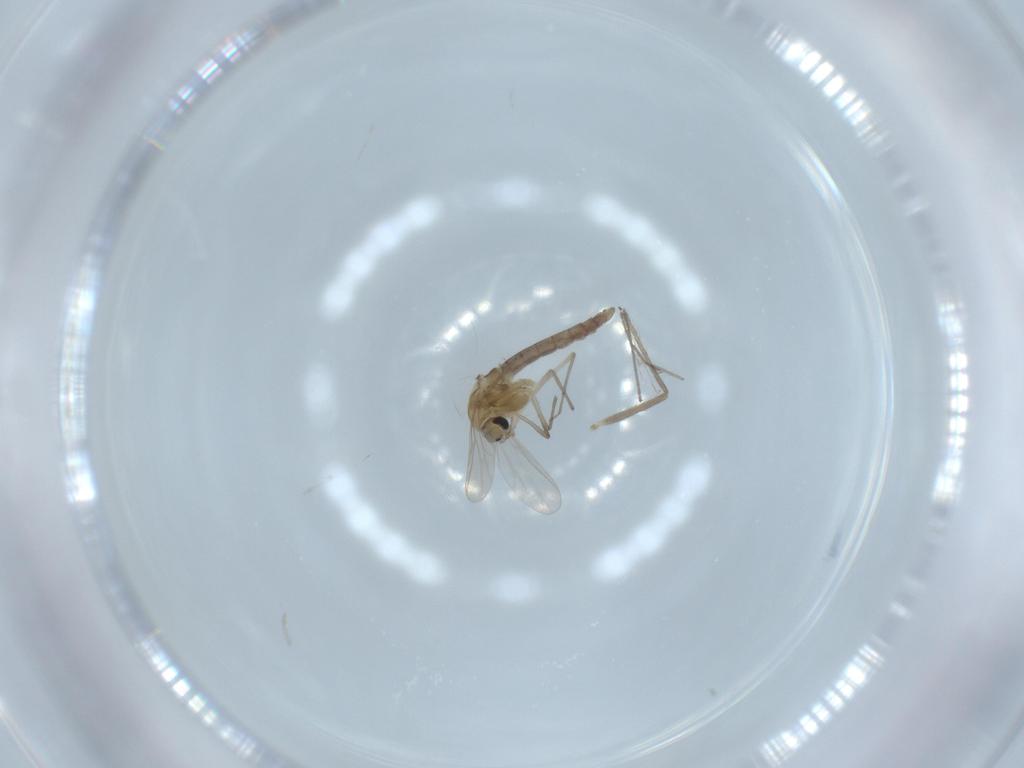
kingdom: Animalia
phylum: Arthropoda
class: Insecta
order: Diptera
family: Chironomidae
